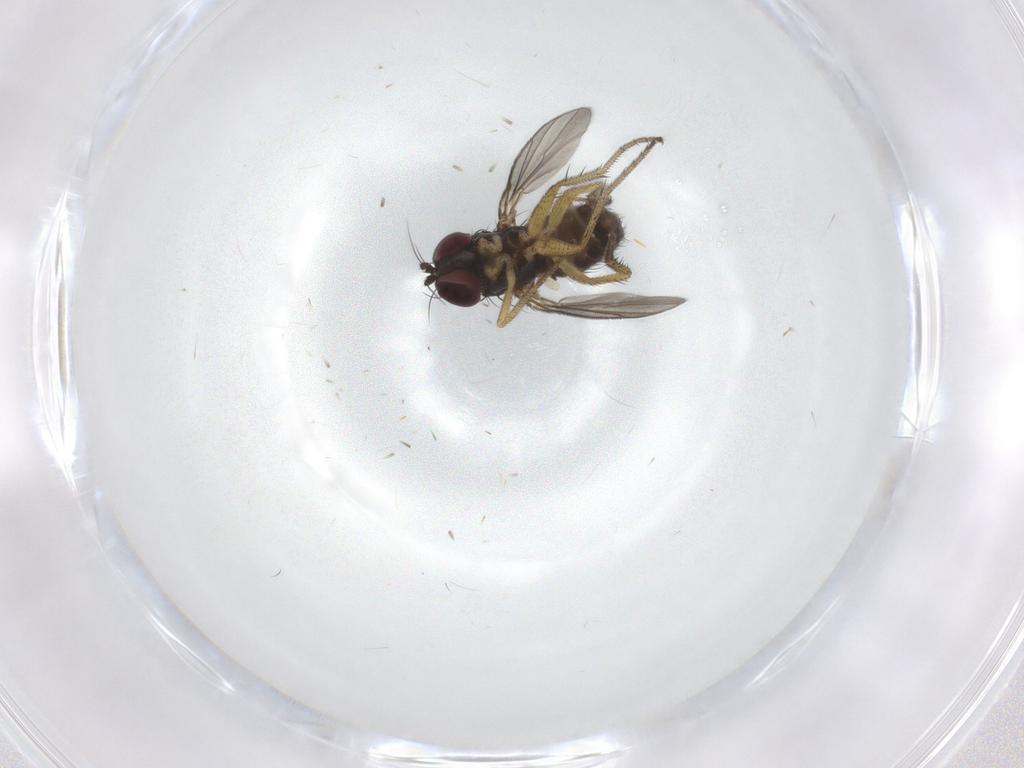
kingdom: Animalia
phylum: Arthropoda
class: Insecta
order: Diptera
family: Dolichopodidae
